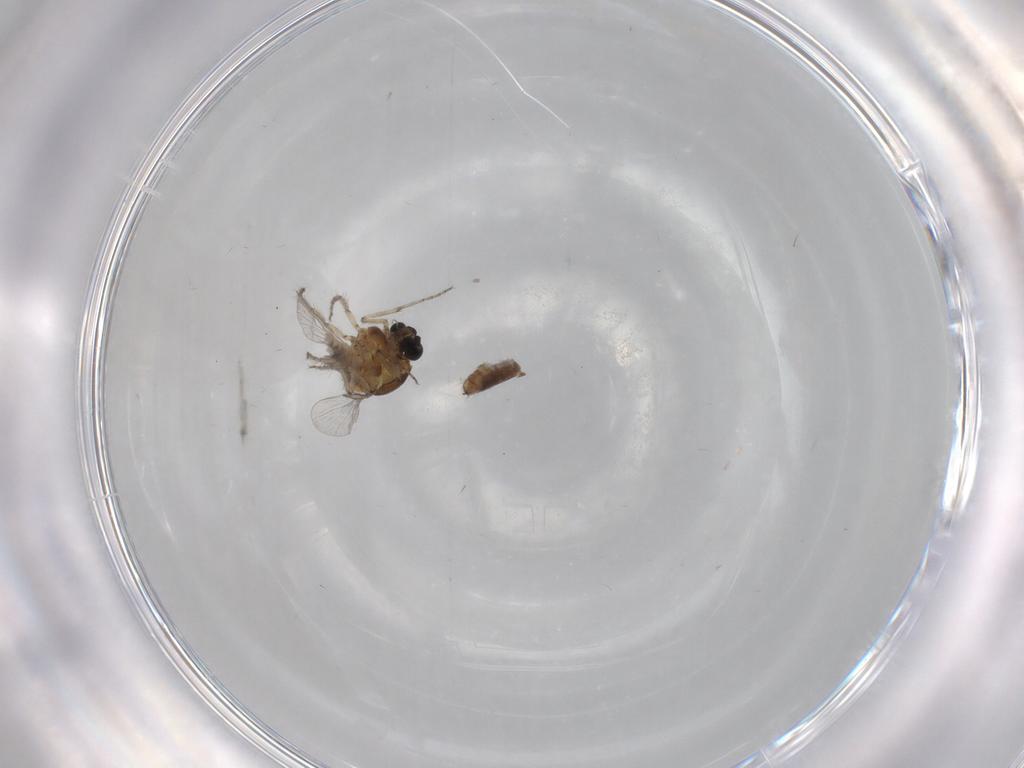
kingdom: Animalia
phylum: Arthropoda
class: Insecta
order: Diptera
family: Ceratopogonidae
